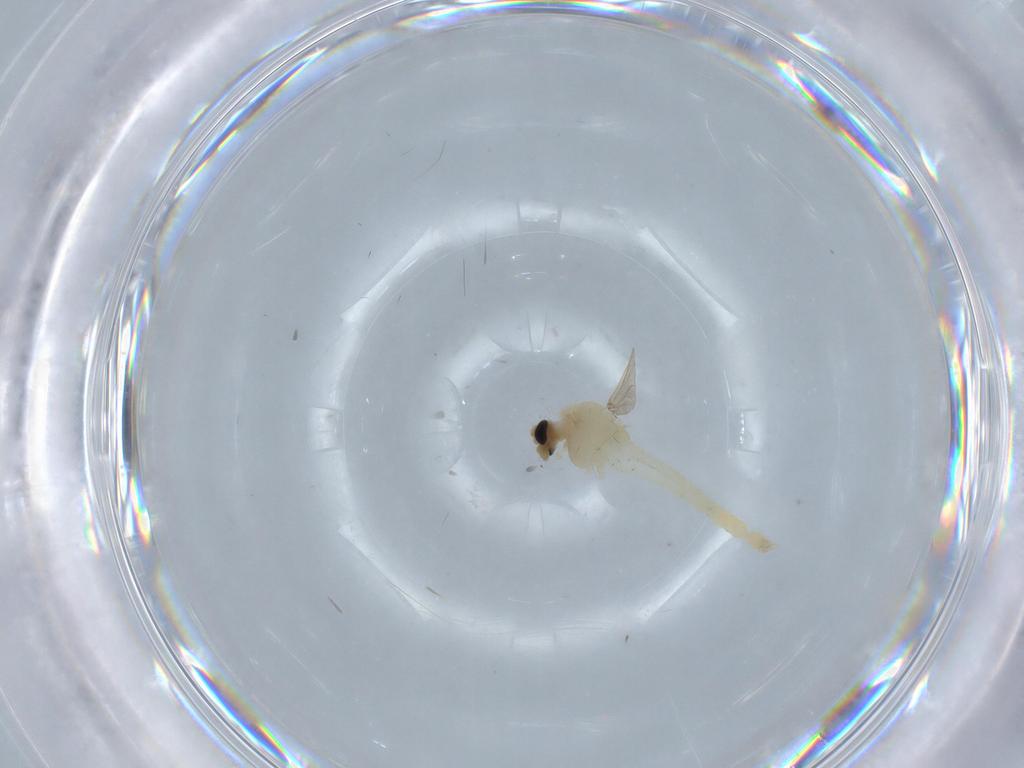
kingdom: Animalia
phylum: Arthropoda
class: Insecta
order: Diptera
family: Chironomidae
